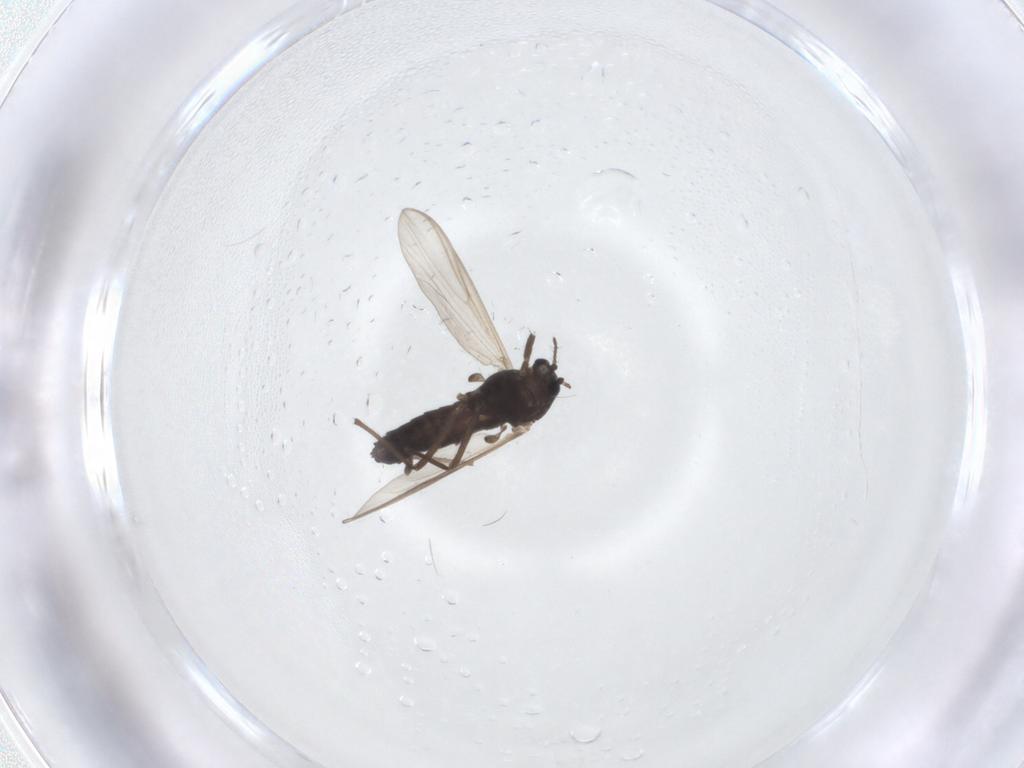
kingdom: Animalia
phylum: Arthropoda
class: Insecta
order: Diptera
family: Chironomidae
